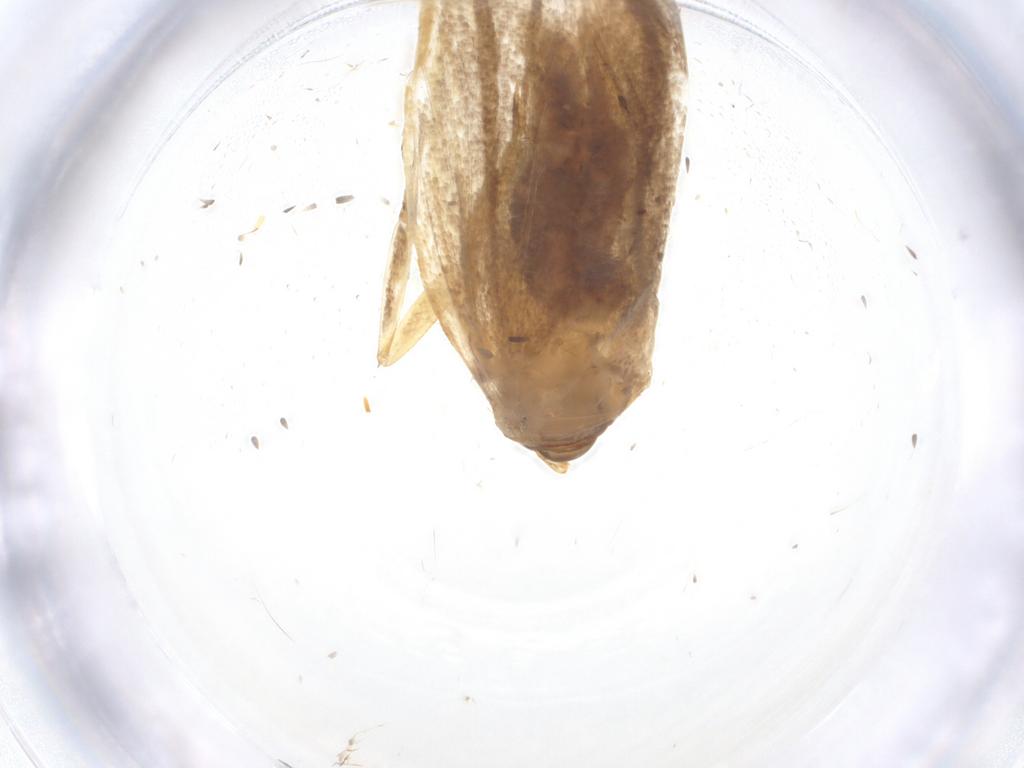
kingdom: Animalia
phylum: Arthropoda
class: Insecta
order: Lepidoptera
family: Lecithoceridae
